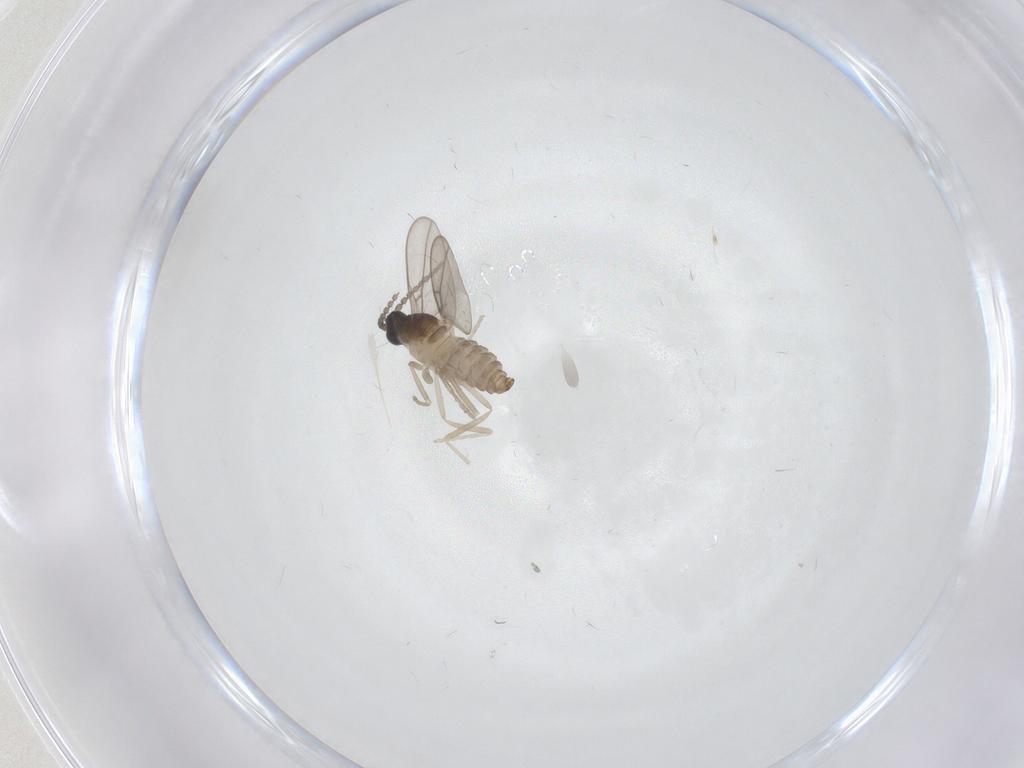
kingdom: Animalia
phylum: Arthropoda
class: Insecta
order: Diptera
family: Cecidomyiidae
